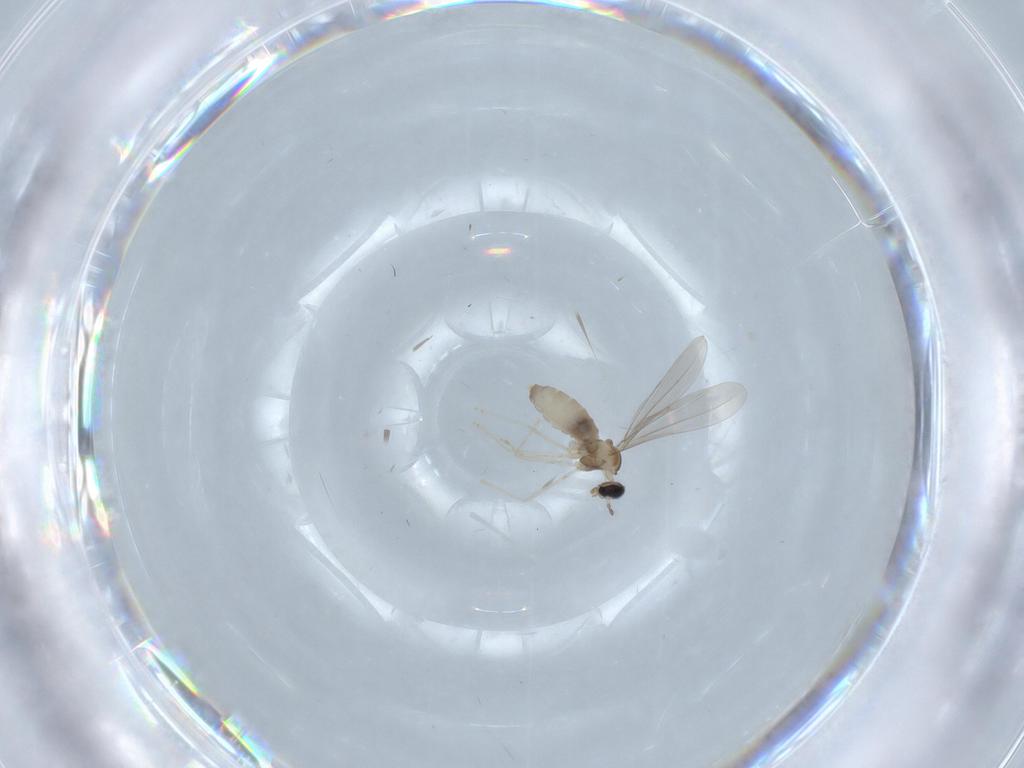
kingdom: Animalia
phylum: Arthropoda
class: Insecta
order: Diptera
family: Cecidomyiidae
